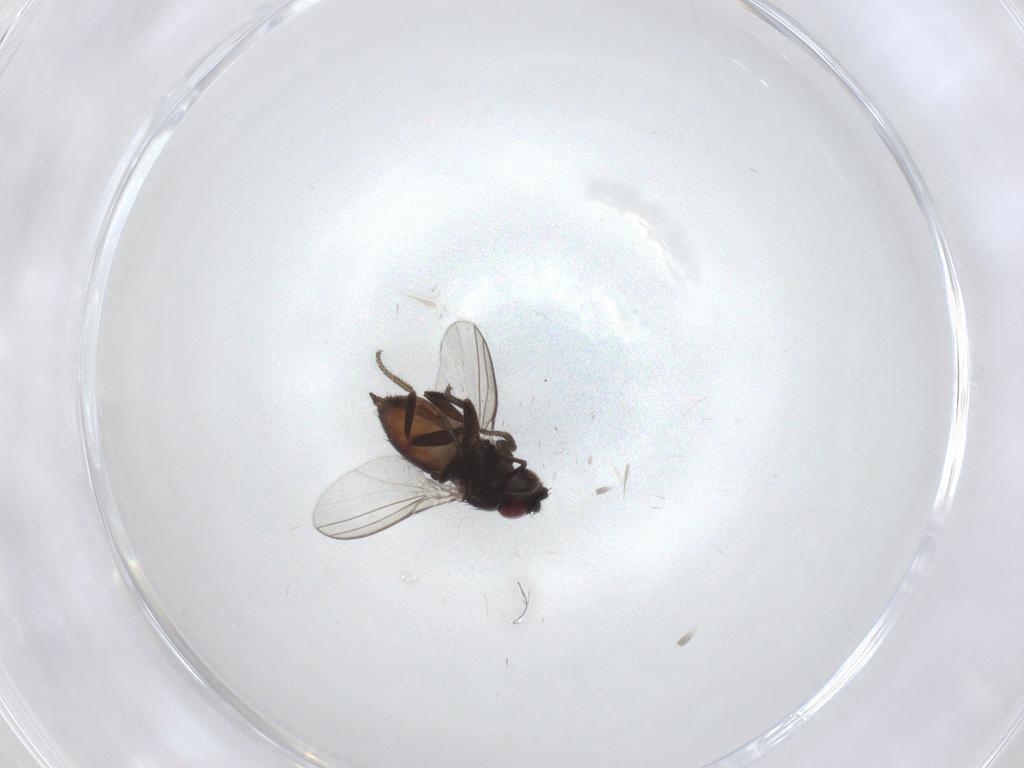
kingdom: Animalia
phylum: Arthropoda
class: Insecta
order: Diptera
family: Milichiidae
